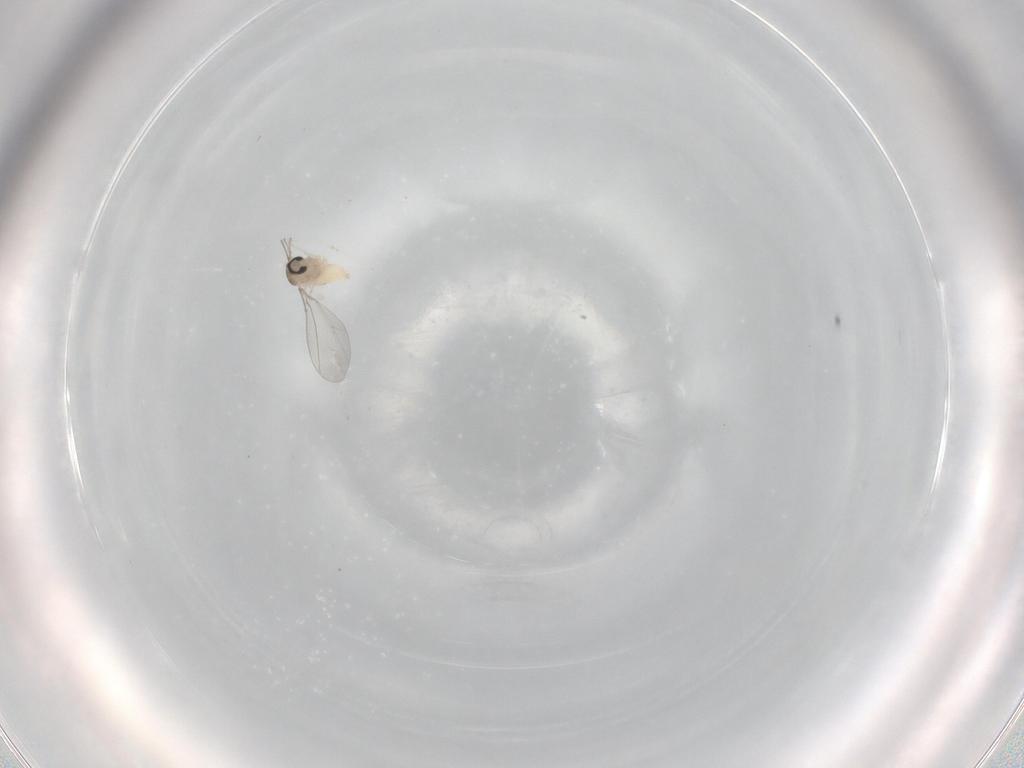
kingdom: Animalia
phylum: Arthropoda
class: Insecta
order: Diptera
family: Cecidomyiidae
